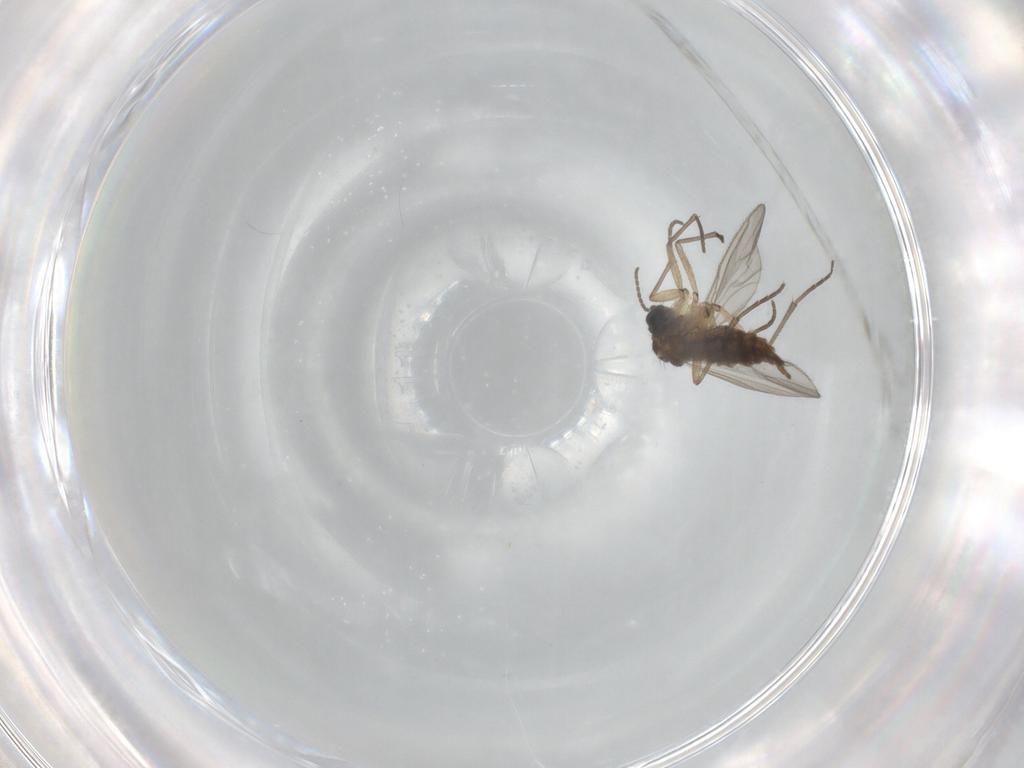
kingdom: Animalia
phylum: Arthropoda
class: Insecta
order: Diptera
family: Sciaridae
